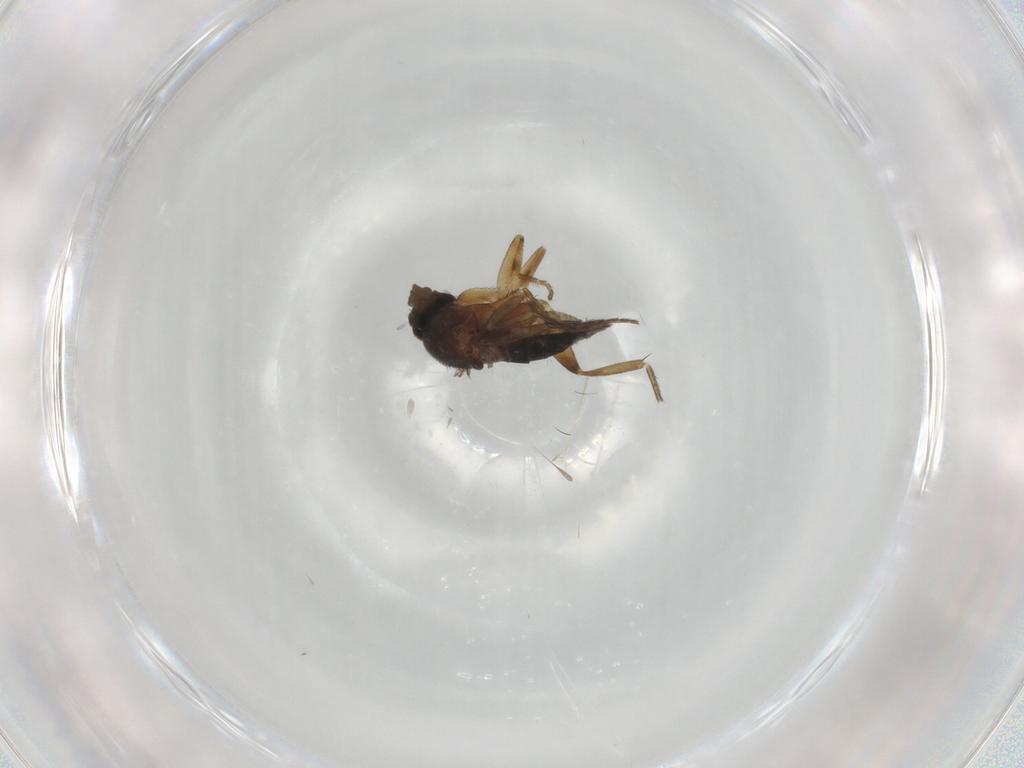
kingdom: Animalia
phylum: Arthropoda
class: Insecta
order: Diptera
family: Phoridae
